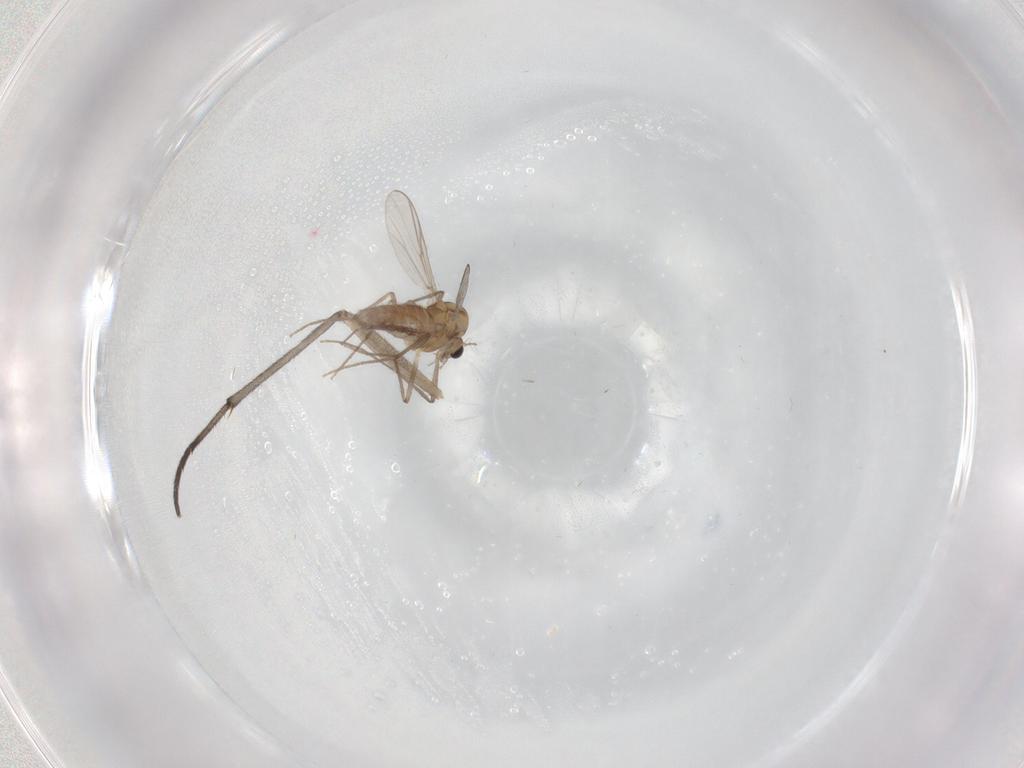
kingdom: Animalia
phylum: Arthropoda
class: Insecta
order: Diptera
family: Chironomidae
